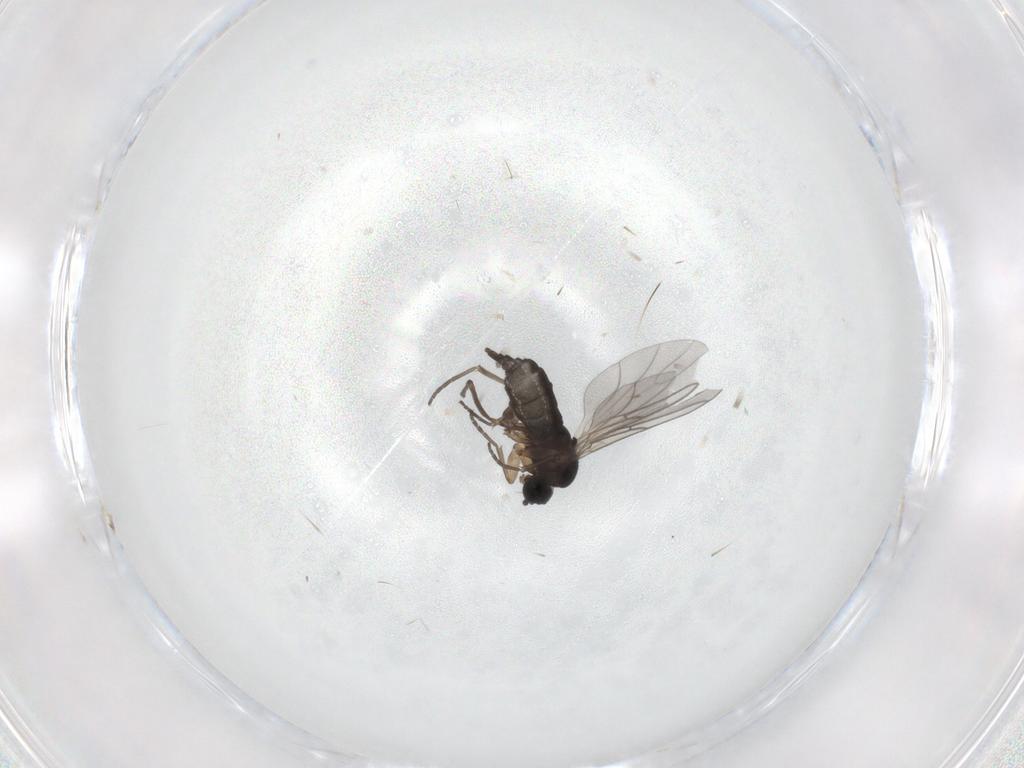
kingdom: Animalia
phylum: Arthropoda
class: Insecta
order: Diptera
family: Sciaridae
